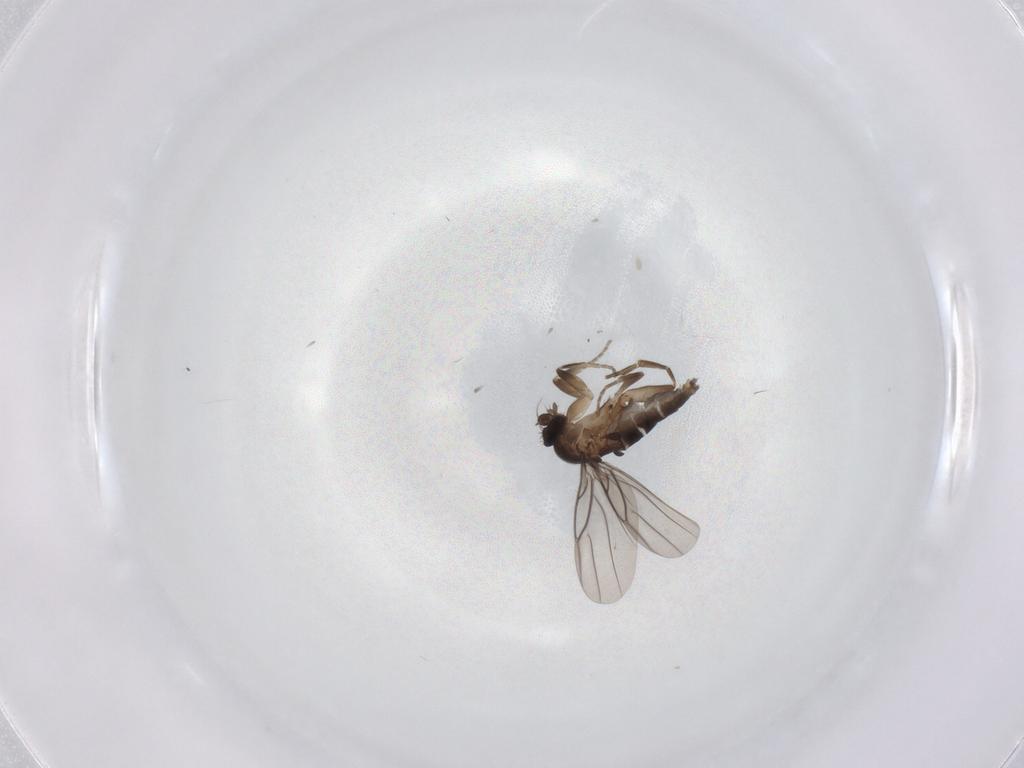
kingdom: Animalia
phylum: Arthropoda
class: Insecta
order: Diptera
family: Phoridae
